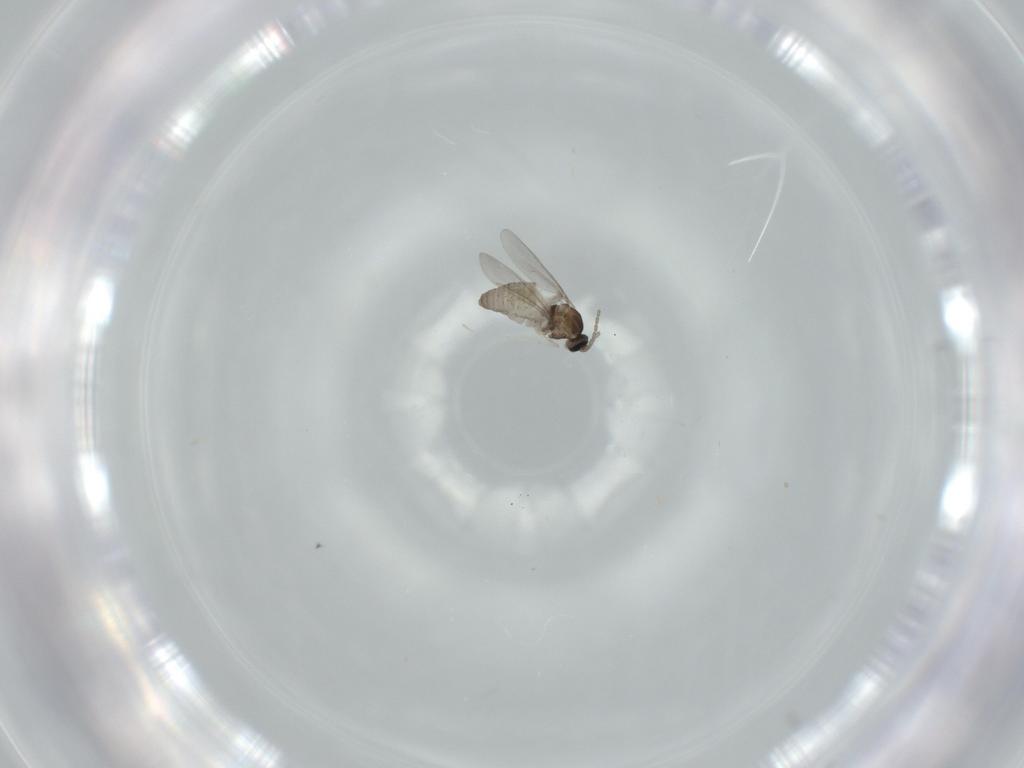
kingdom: Animalia
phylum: Arthropoda
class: Insecta
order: Diptera
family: Cecidomyiidae
